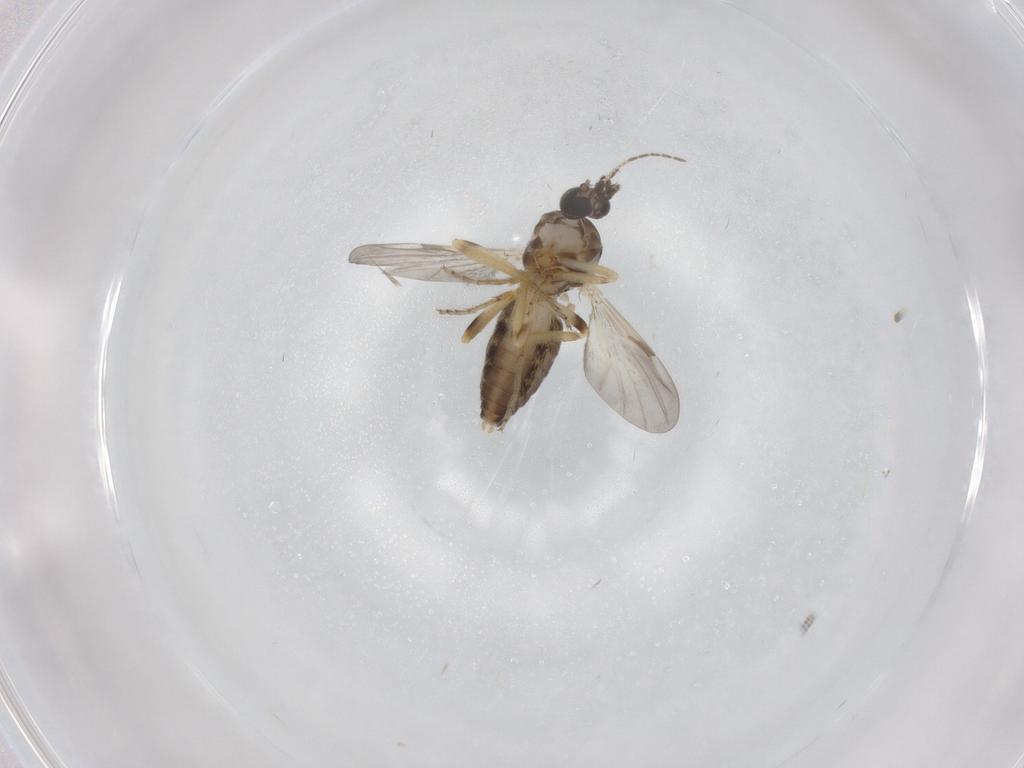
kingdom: Animalia
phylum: Arthropoda
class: Insecta
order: Diptera
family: Ceratopogonidae
